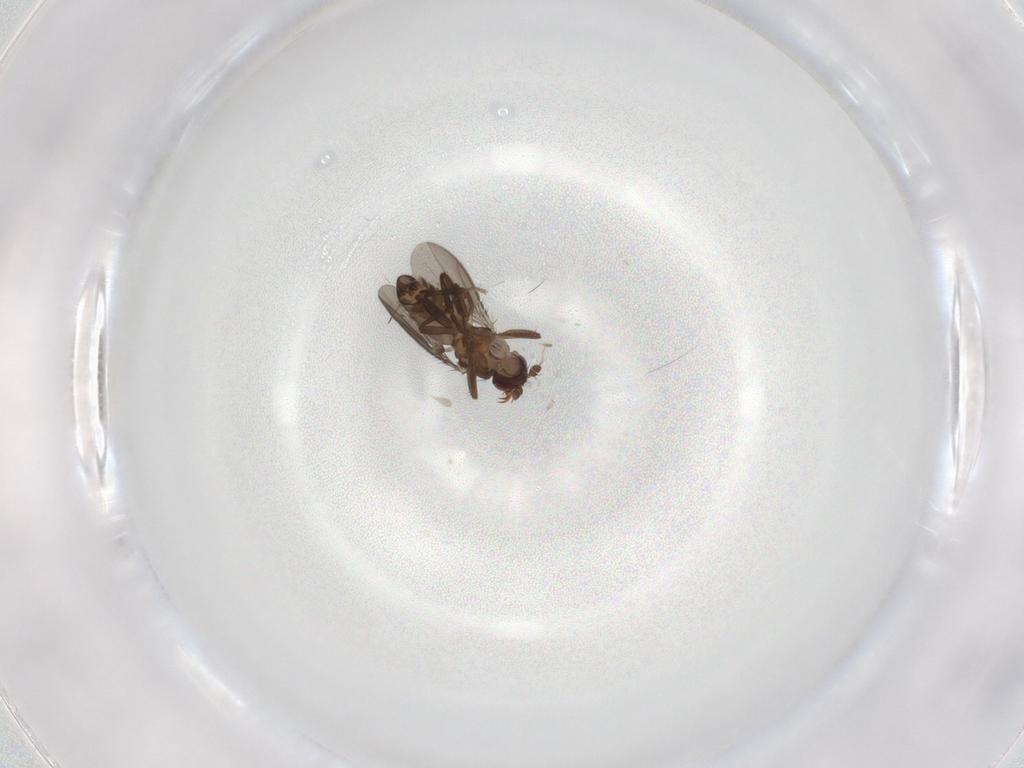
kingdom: Animalia
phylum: Arthropoda
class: Insecta
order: Diptera
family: Sphaeroceridae
